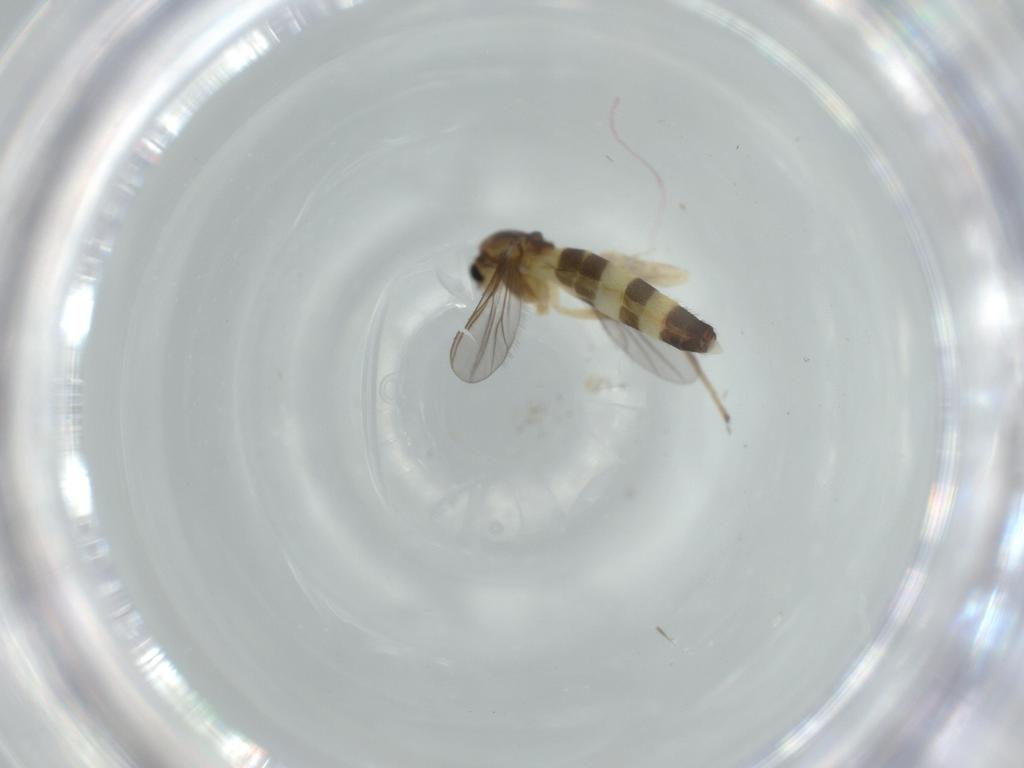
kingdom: Animalia
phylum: Arthropoda
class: Insecta
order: Diptera
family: Chironomidae
